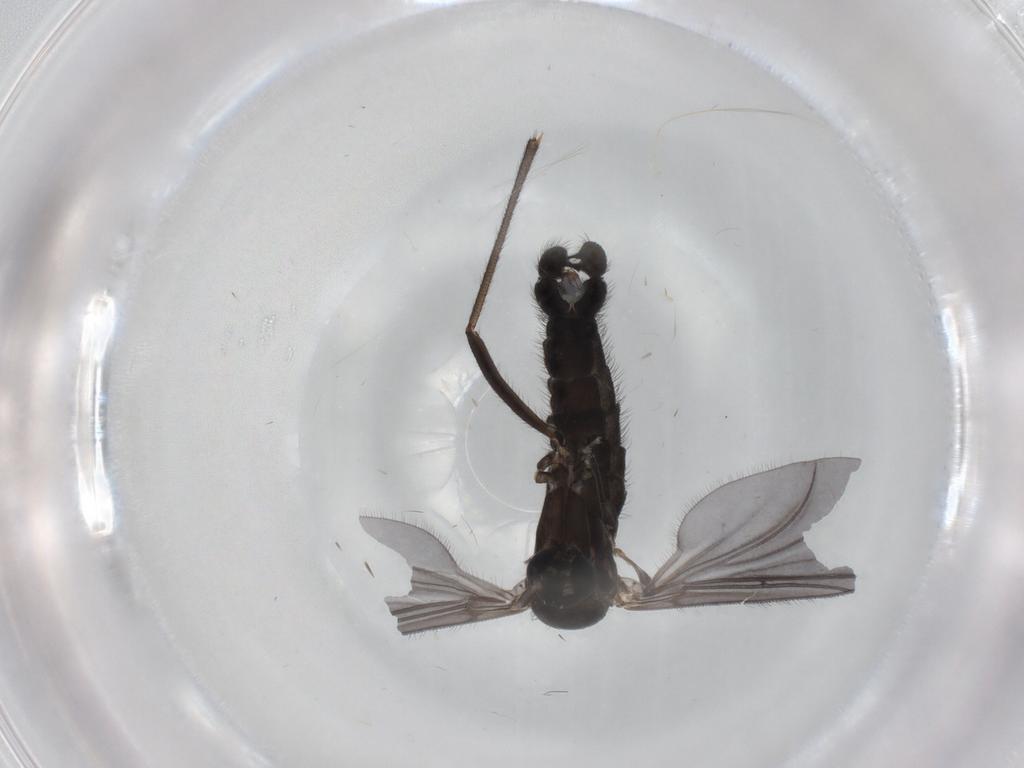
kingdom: Animalia
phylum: Arthropoda
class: Insecta
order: Diptera
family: Sciaridae
